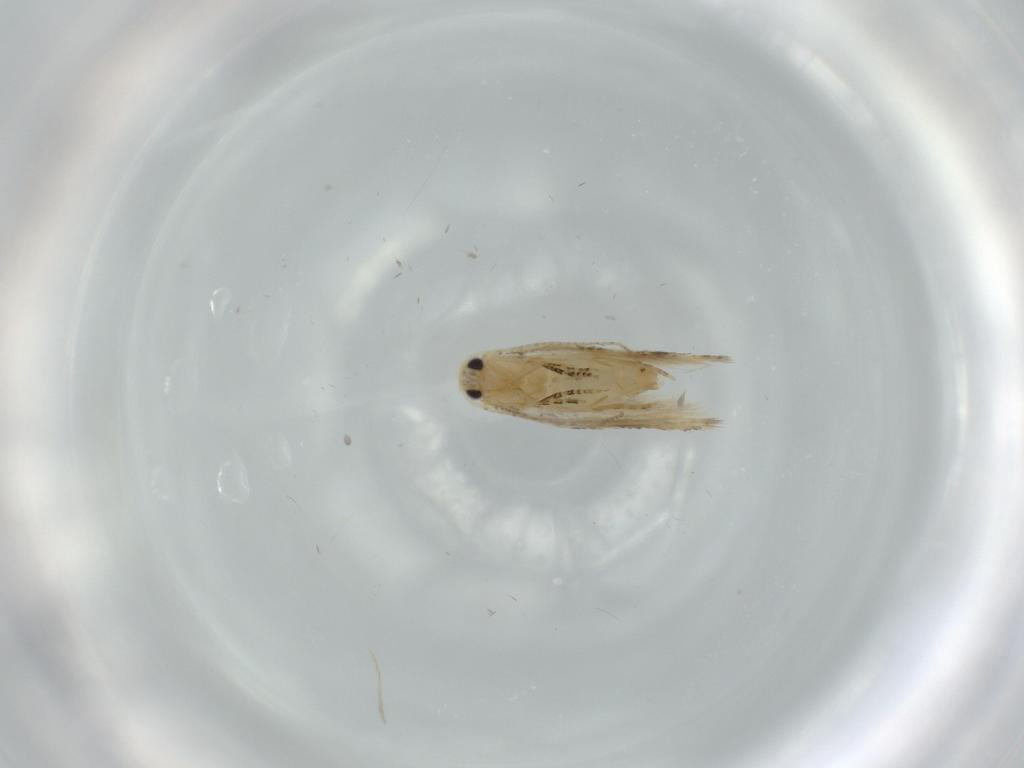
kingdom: Animalia
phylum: Arthropoda
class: Insecta
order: Lepidoptera
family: Bucculatricidae
